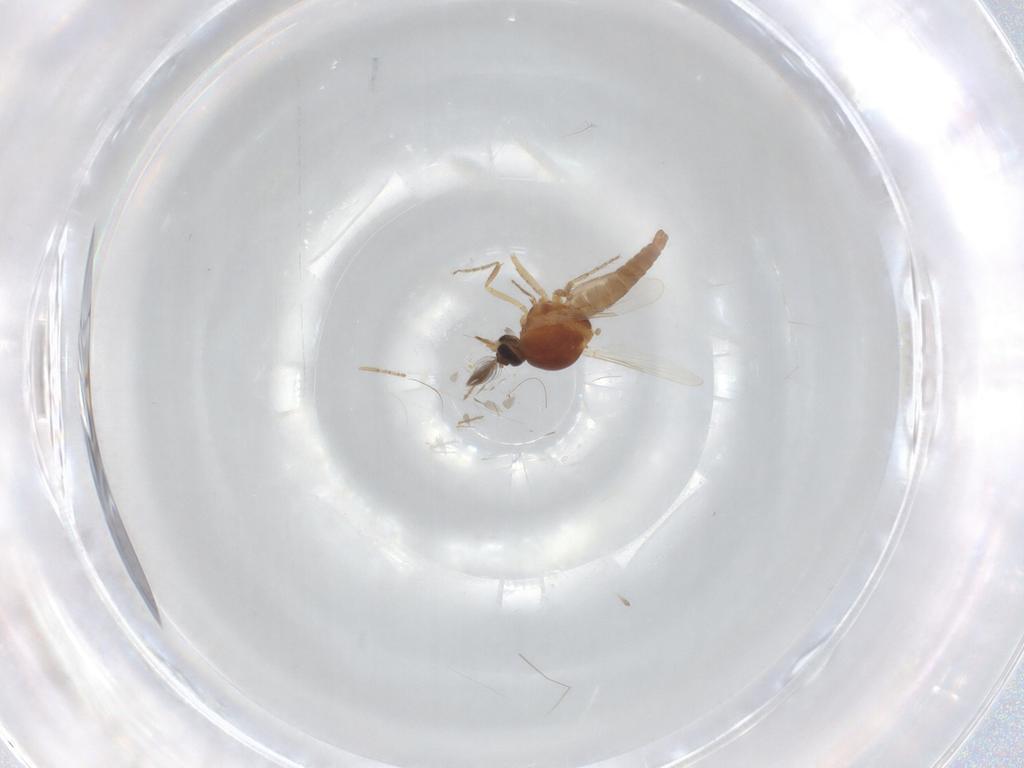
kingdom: Animalia
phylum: Arthropoda
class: Insecta
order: Diptera
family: Ceratopogonidae
